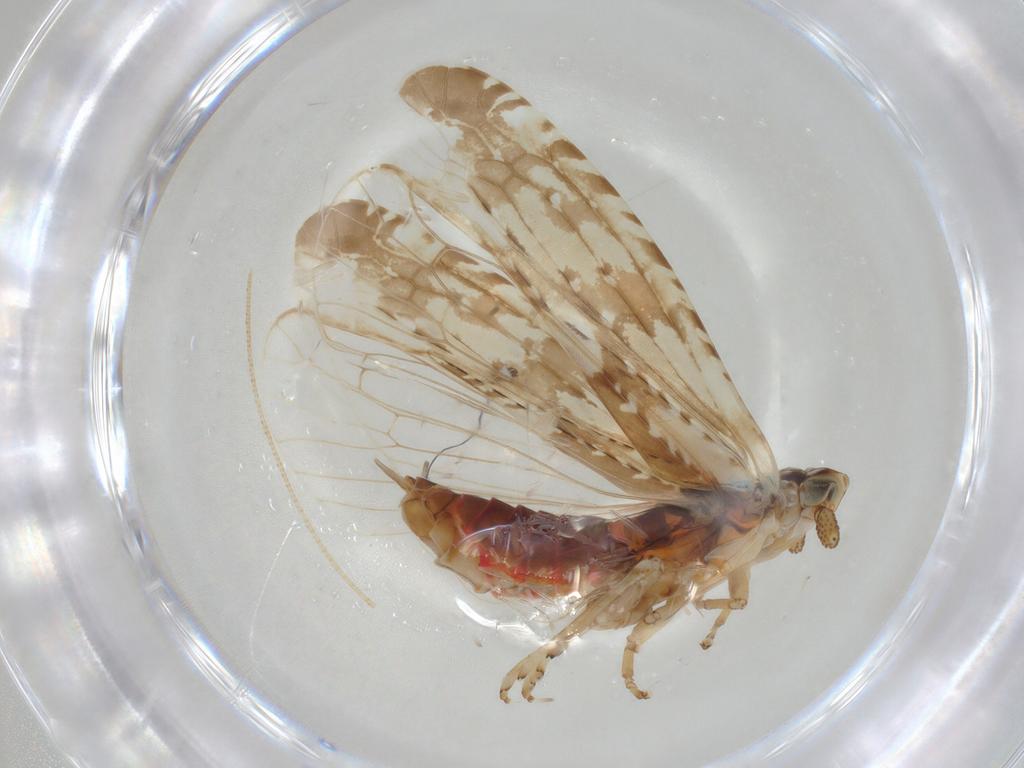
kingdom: Animalia
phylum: Arthropoda
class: Insecta
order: Hemiptera
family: Achilidae
